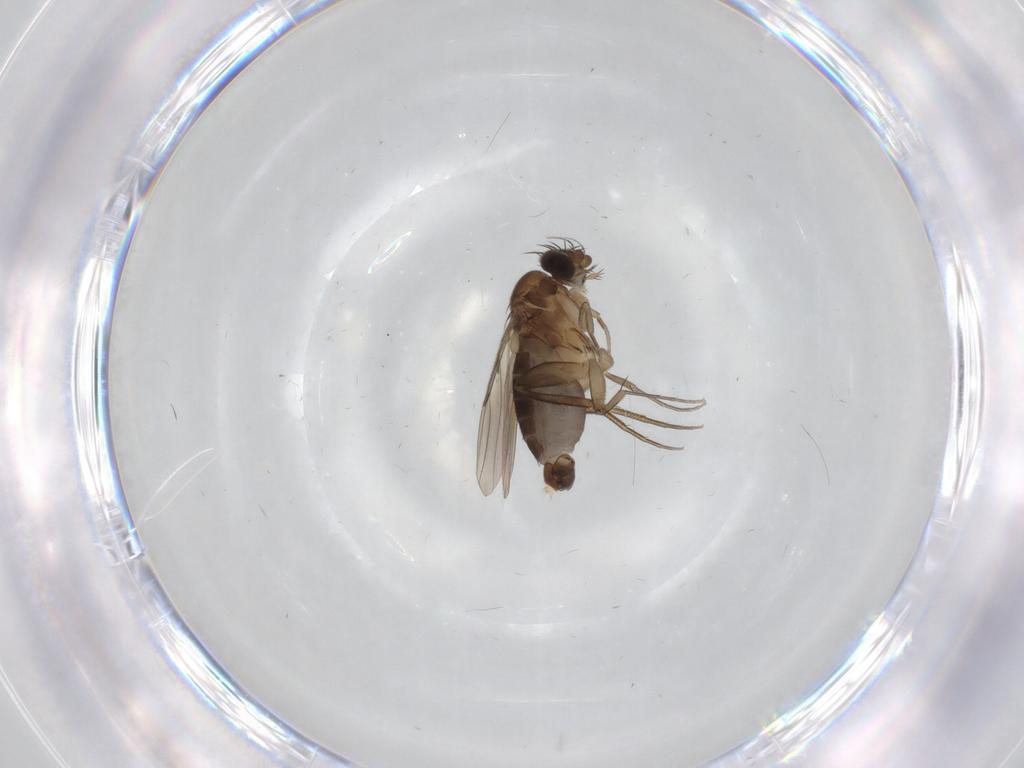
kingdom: Animalia
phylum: Arthropoda
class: Insecta
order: Diptera
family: Phoridae
